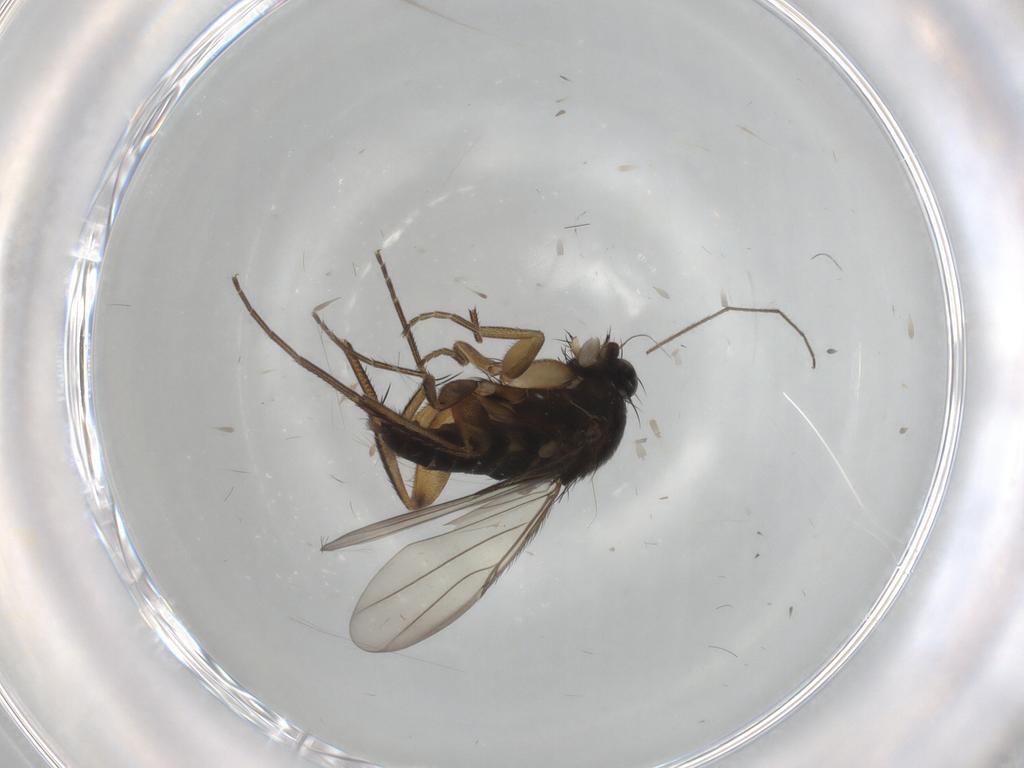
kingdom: Animalia
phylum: Arthropoda
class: Insecta
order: Diptera
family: Phoridae
